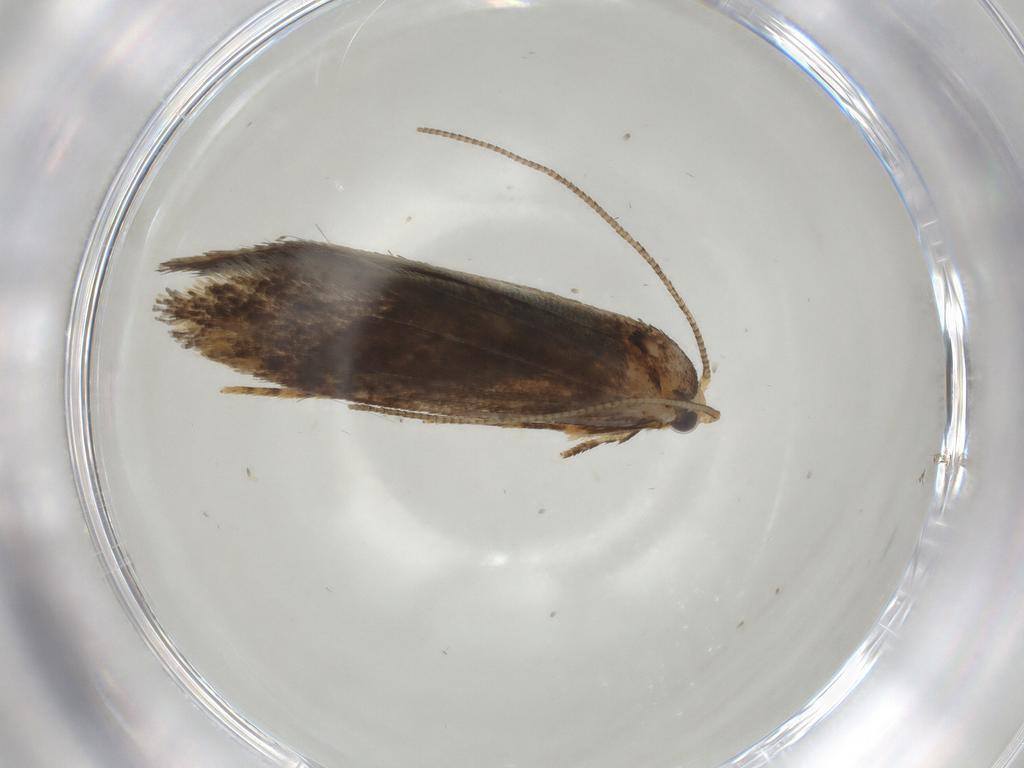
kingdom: Animalia
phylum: Arthropoda
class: Insecta
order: Lepidoptera
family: Tineidae
